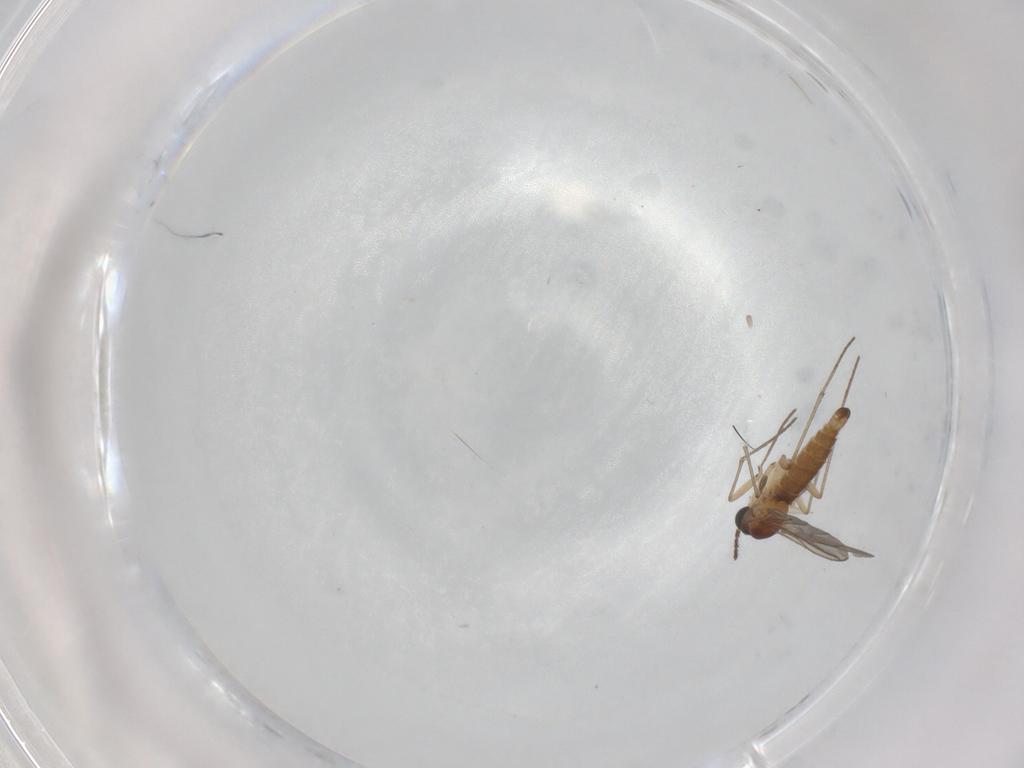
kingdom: Animalia
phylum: Arthropoda
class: Insecta
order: Diptera
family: Sciaridae
